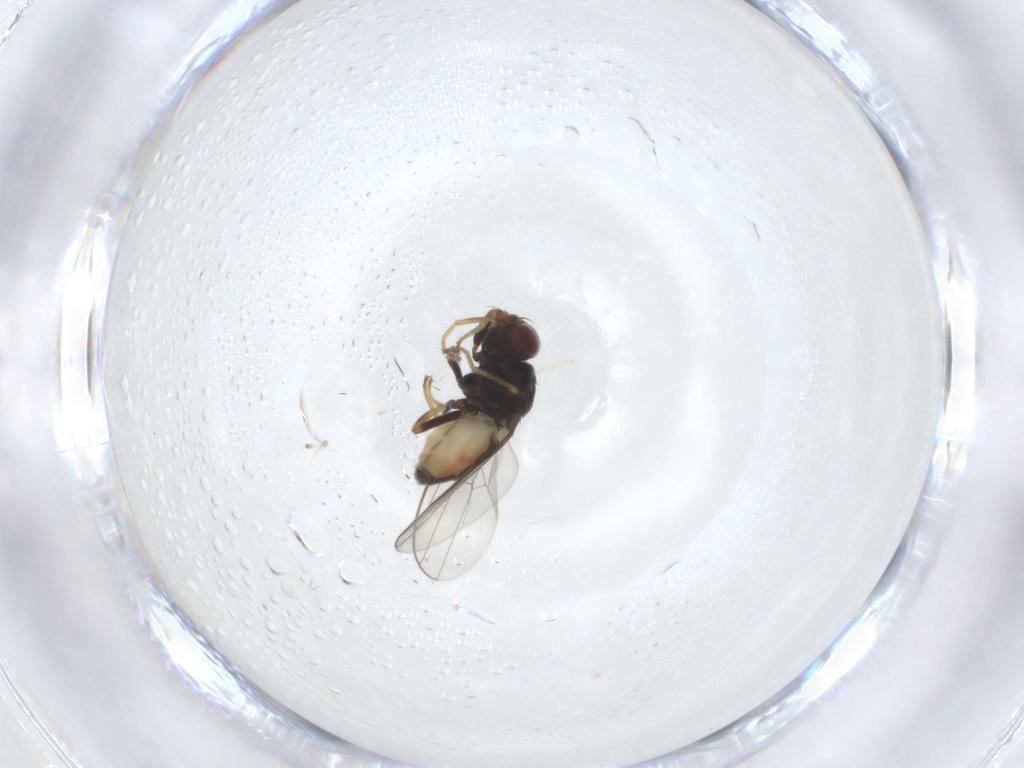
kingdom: Animalia
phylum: Arthropoda
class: Insecta
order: Diptera
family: Chloropidae
